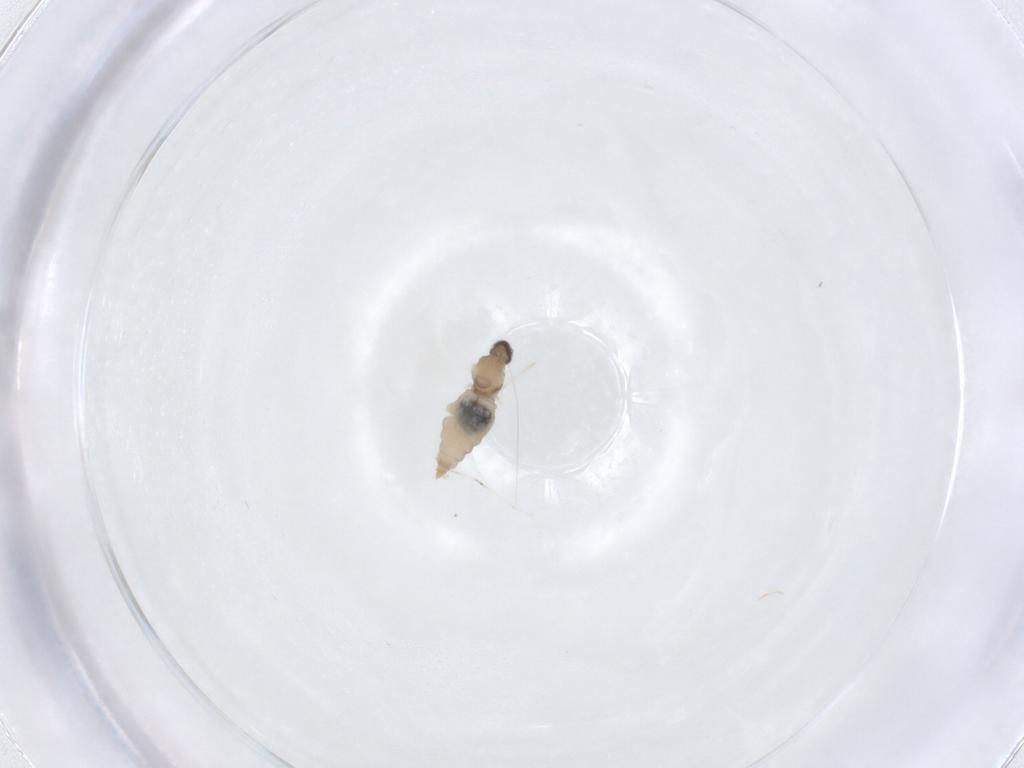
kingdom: Animalia
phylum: Arthropoda
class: Insecta
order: Diptera
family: Cecidomyiidae
